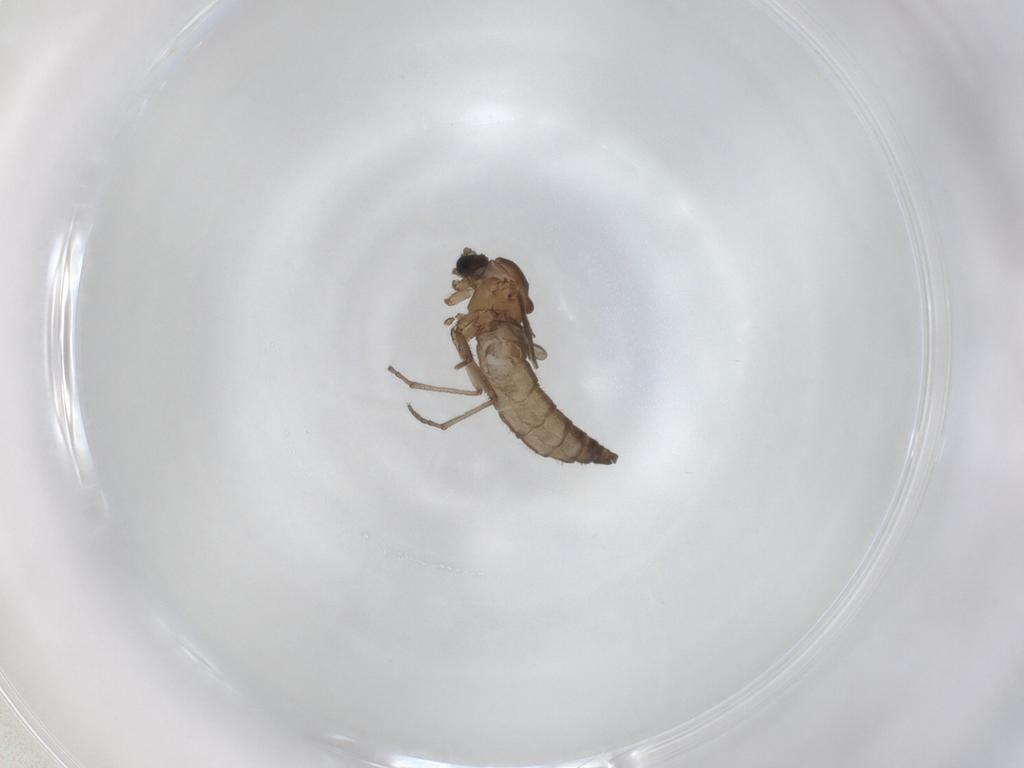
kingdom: Animalia
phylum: Arthropoda
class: Insecta
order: Diptera
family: Sciaridae
